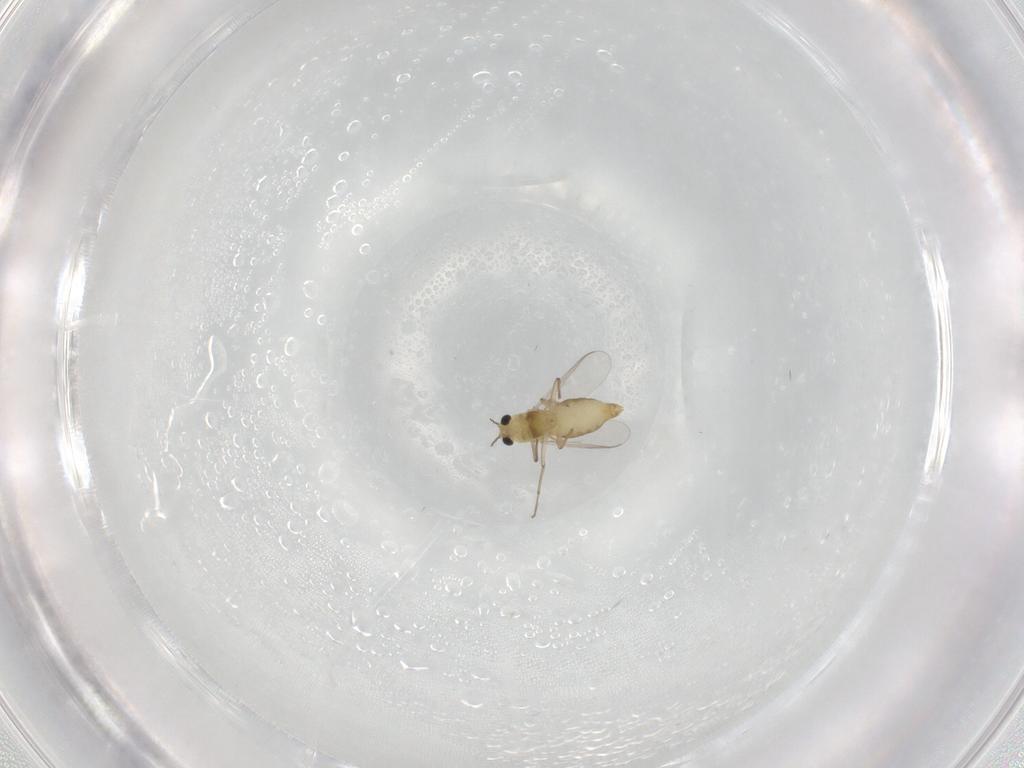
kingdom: Animalia
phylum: Arthropoda
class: Insecta
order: Diptera
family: Chironomidae
